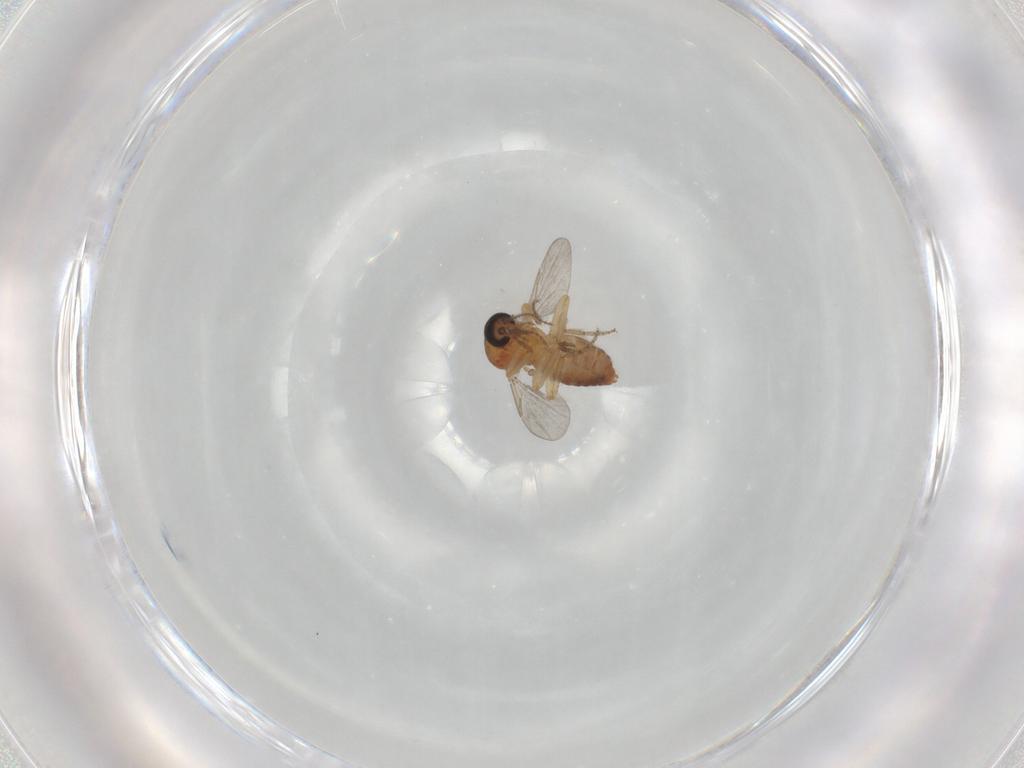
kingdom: Animalia
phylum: Arthropoda
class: Insecta
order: Diptera
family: Ceratopogonidae
